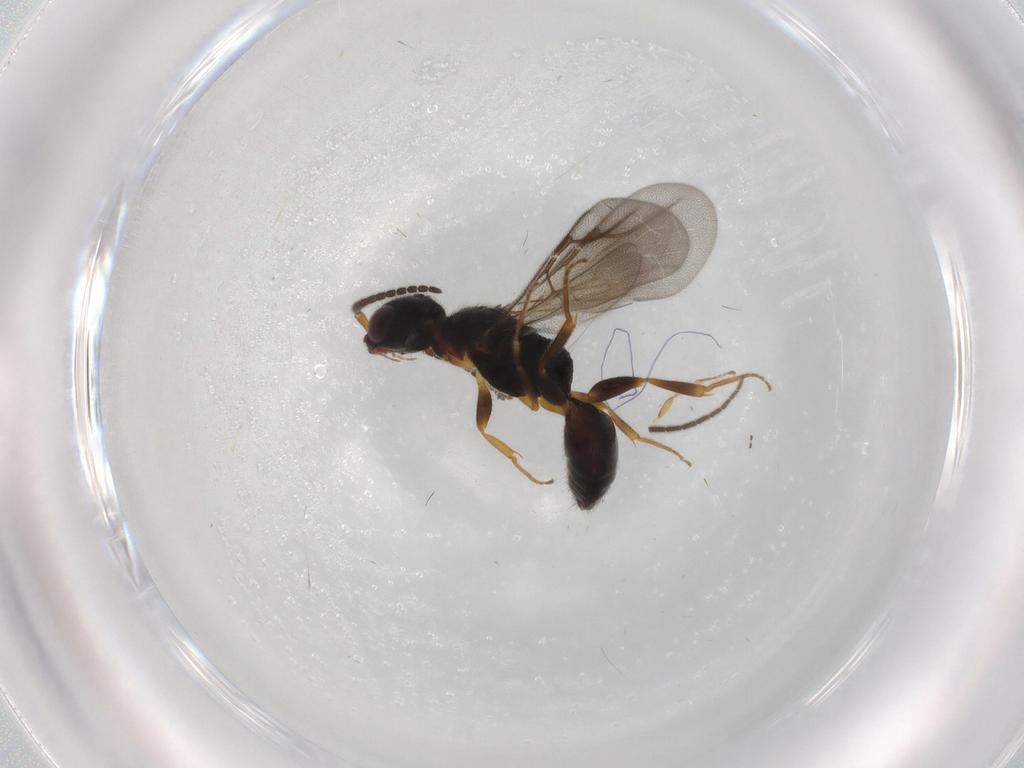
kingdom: Animalia
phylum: Arthropoda
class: Insecta
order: Hymenoptera
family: Bethylidae
